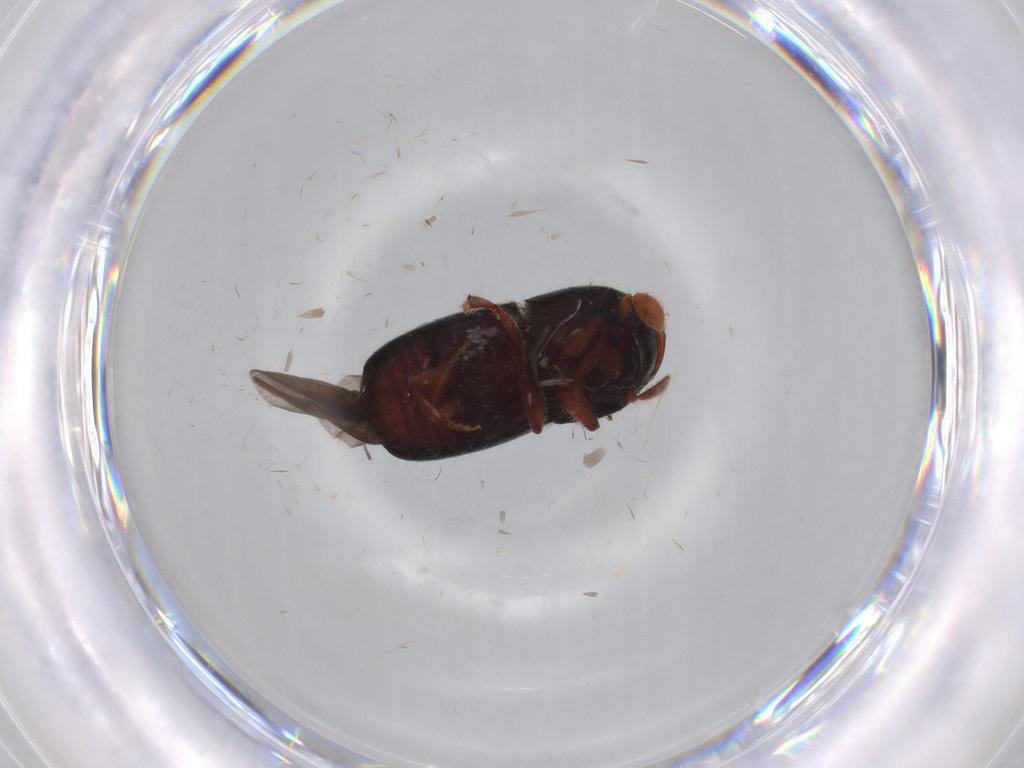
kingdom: Animalia
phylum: Arthropoda
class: Insecta
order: Coleoptera
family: Curculionidae
